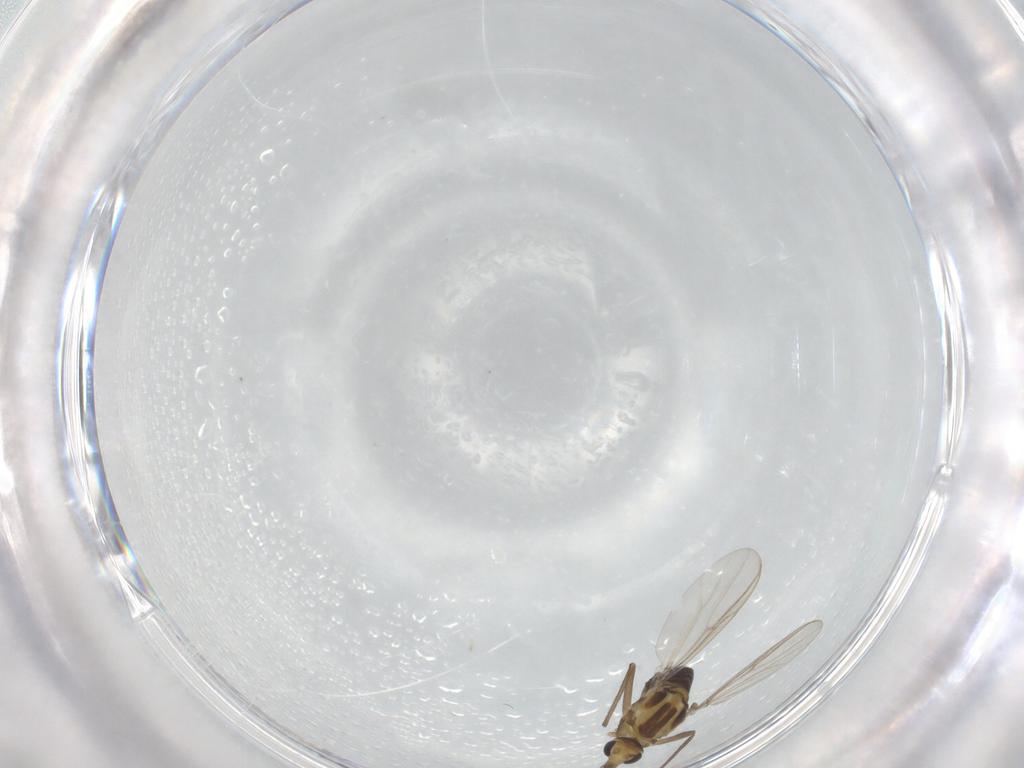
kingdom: Animalia
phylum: Arthropoda
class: Insecta
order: Diptera
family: Chironomidae
